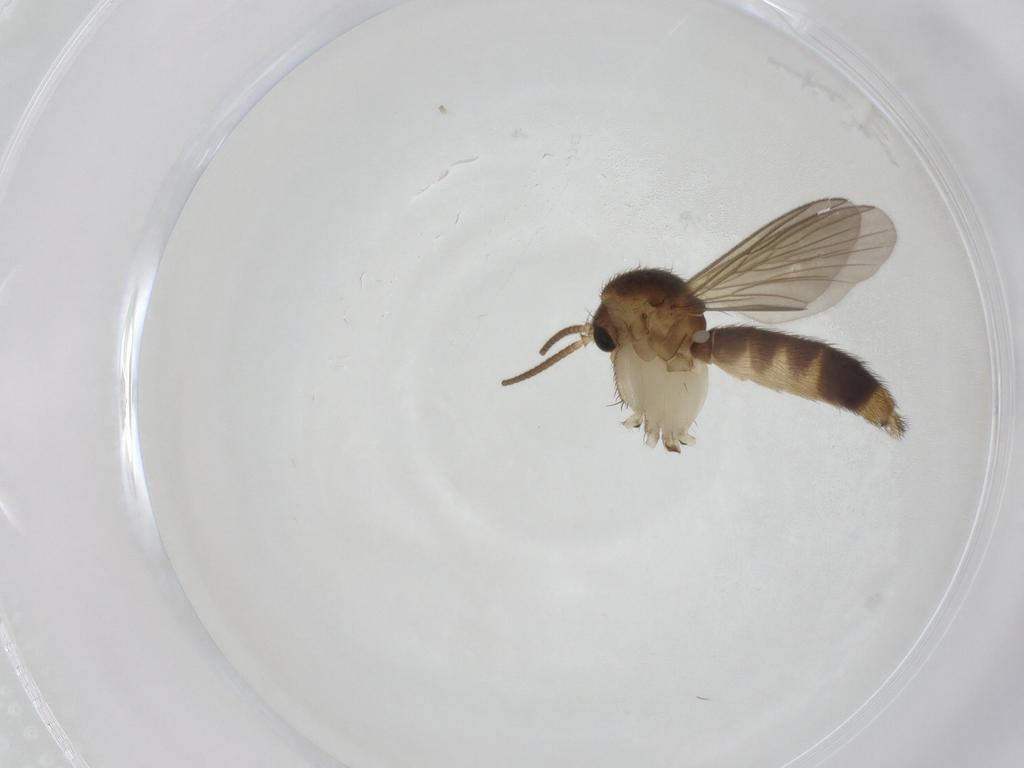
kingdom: Animalia
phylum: Arthropoda
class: Insecta
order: Diptera
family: Mycetophilidae
